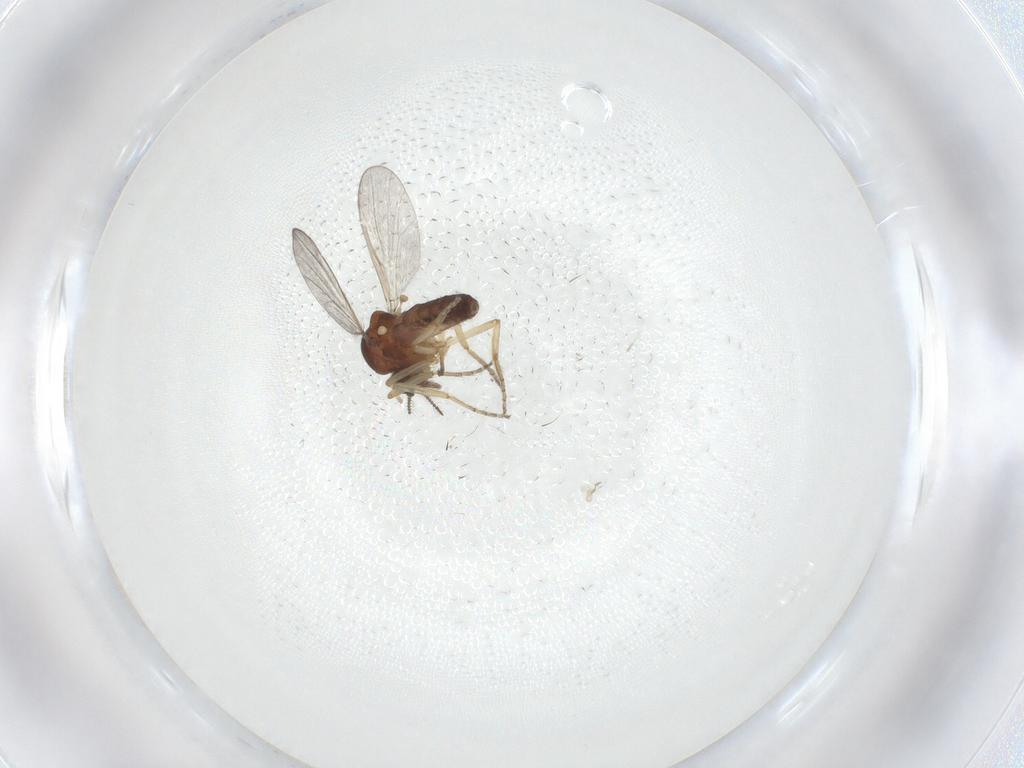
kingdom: Animalia
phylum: Arthropoda
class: Insecta
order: Diptera
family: Ceratopogonidae
